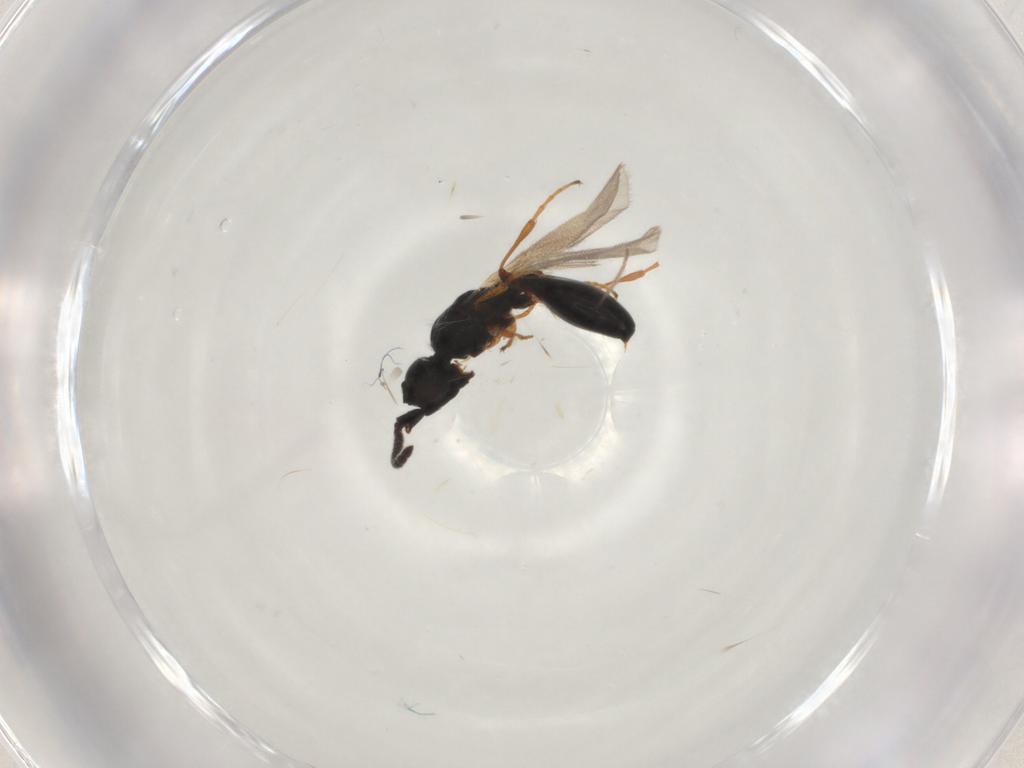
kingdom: Animalia
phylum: Arthropoda
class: Insecta
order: Hymenoptera
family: Diapriidae
